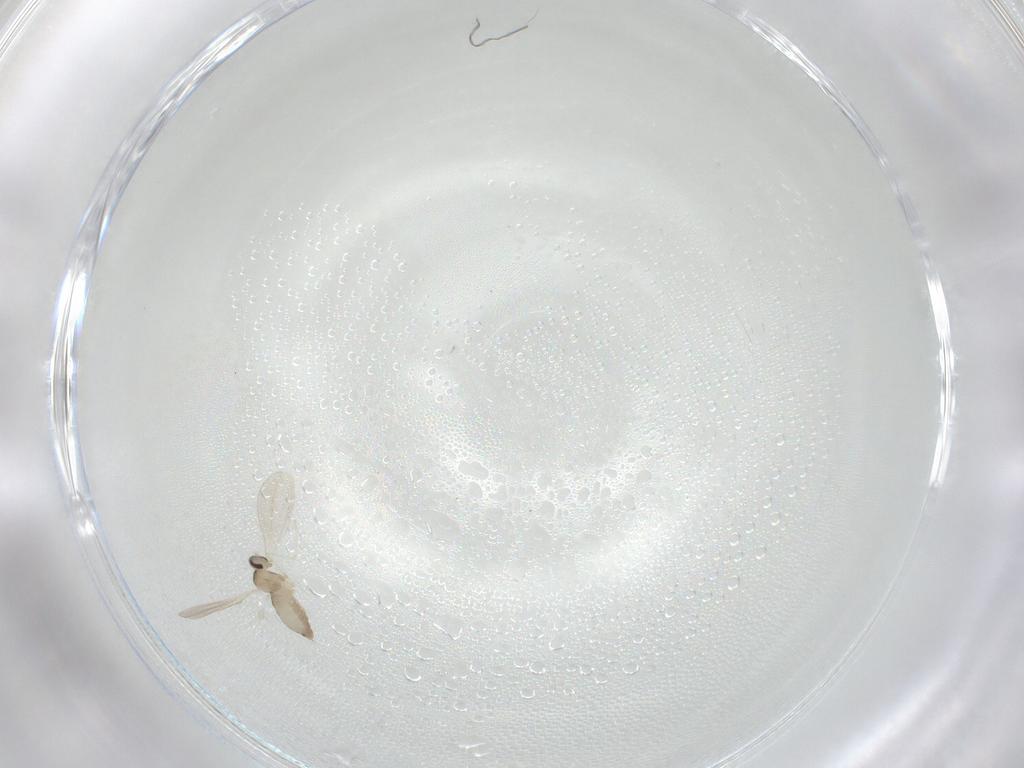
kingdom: Animalia
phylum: Arthropoda
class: Insecta
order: Diptera
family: Cecidomyiidae
